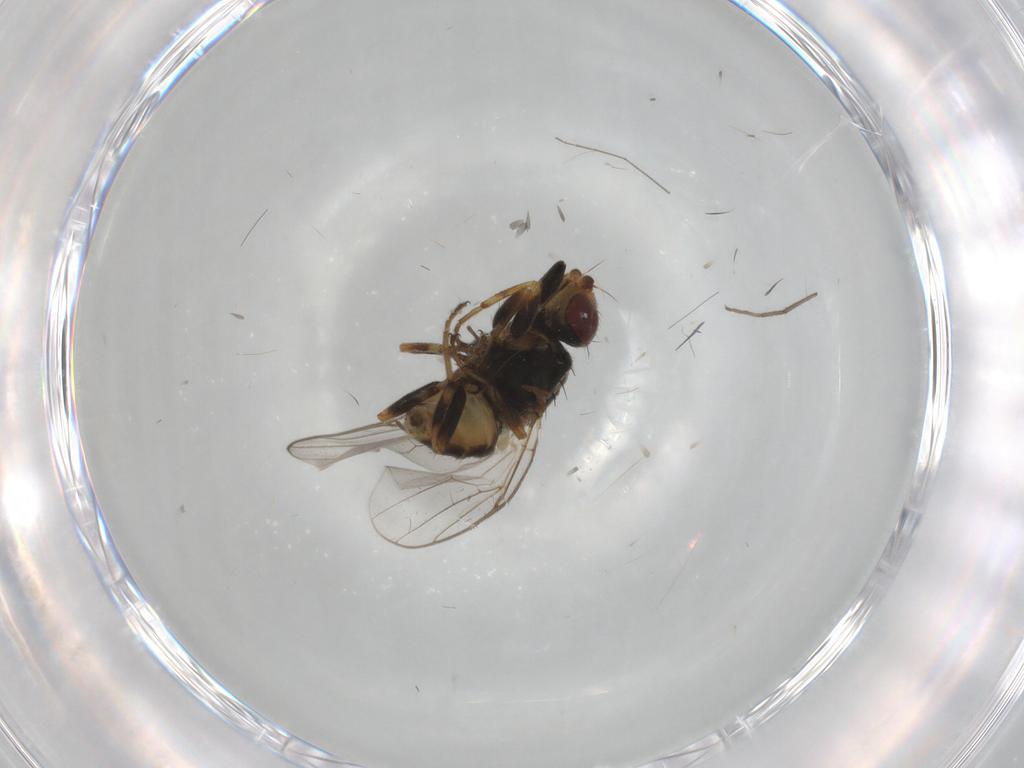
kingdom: Animalia
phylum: Arthropoda
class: Insecta
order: Diptera
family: Chloropidae
